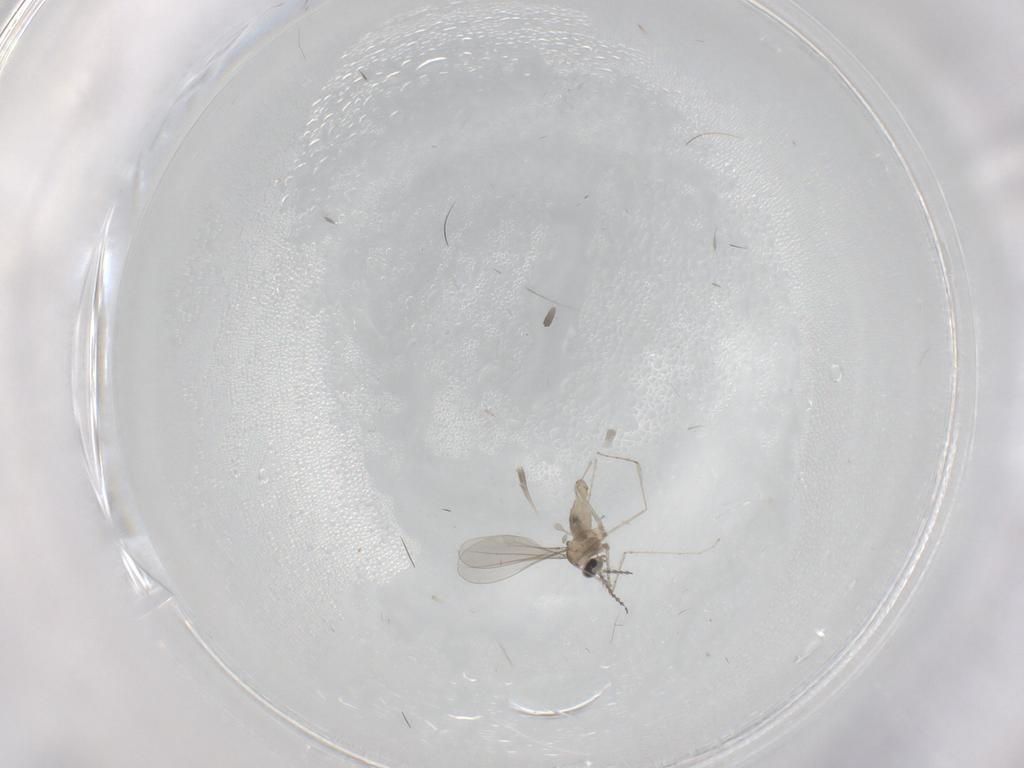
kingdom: Animalia
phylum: Arthropoda
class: Insecta
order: Diptera
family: Cecidomyiidae
